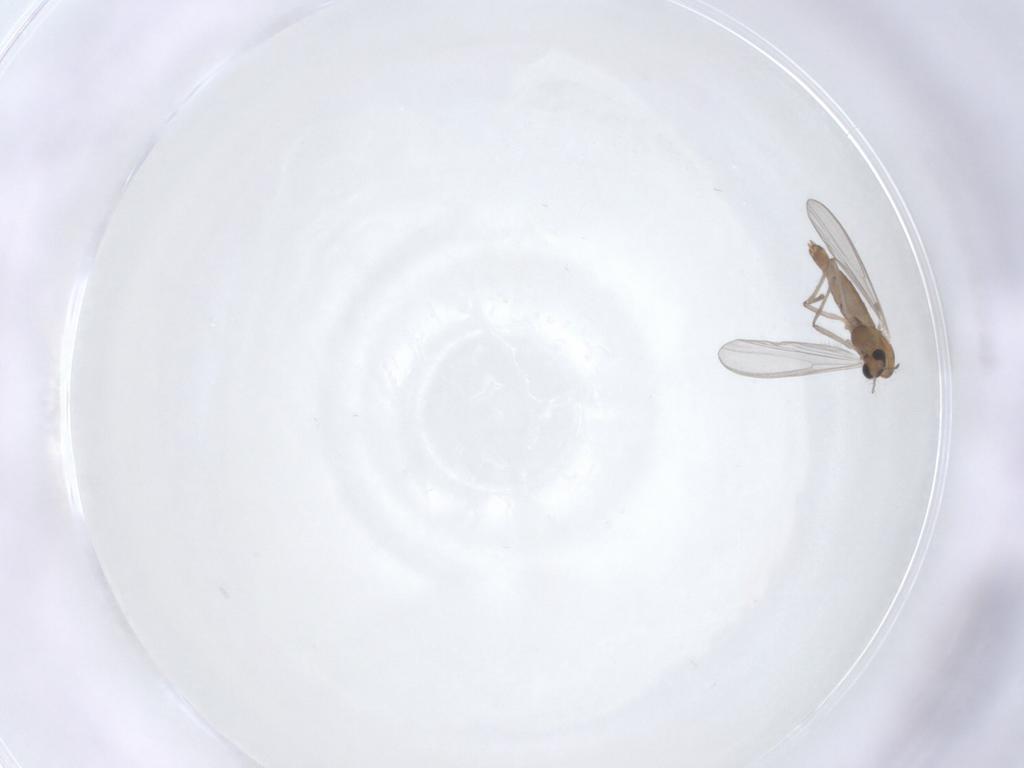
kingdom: Animalia
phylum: Arthropoda
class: Insecta
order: Diptera
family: Chironomidae
